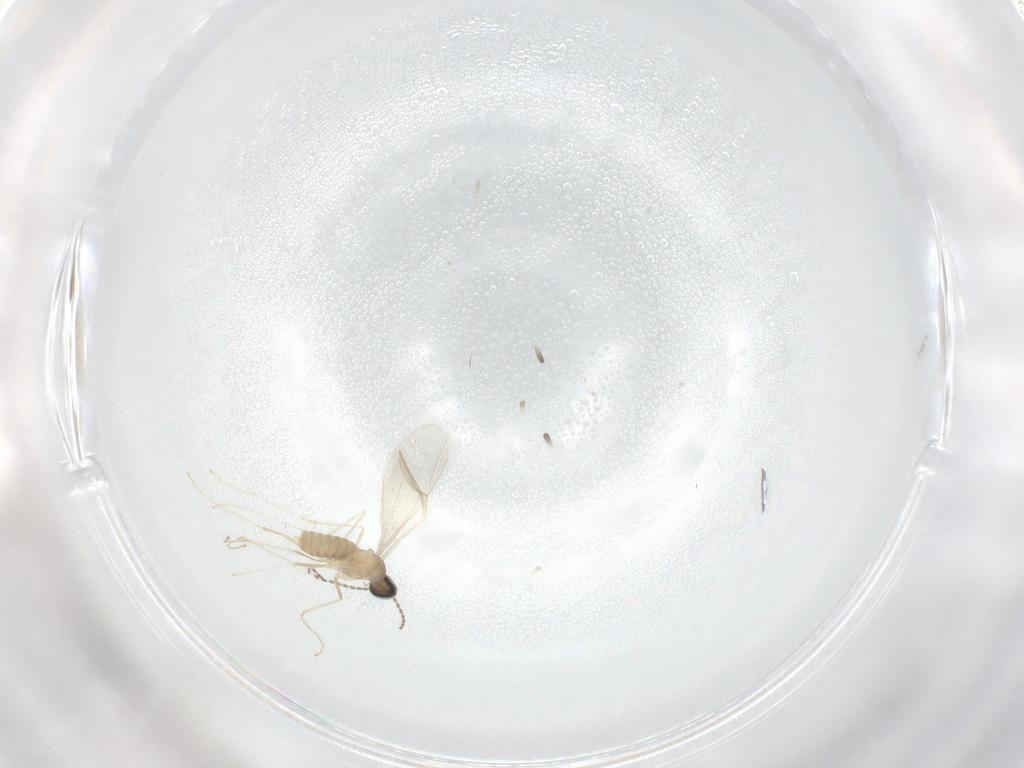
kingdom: Animalia
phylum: Arthropoda
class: Insecta
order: Diptera
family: Cecidomyiidae
